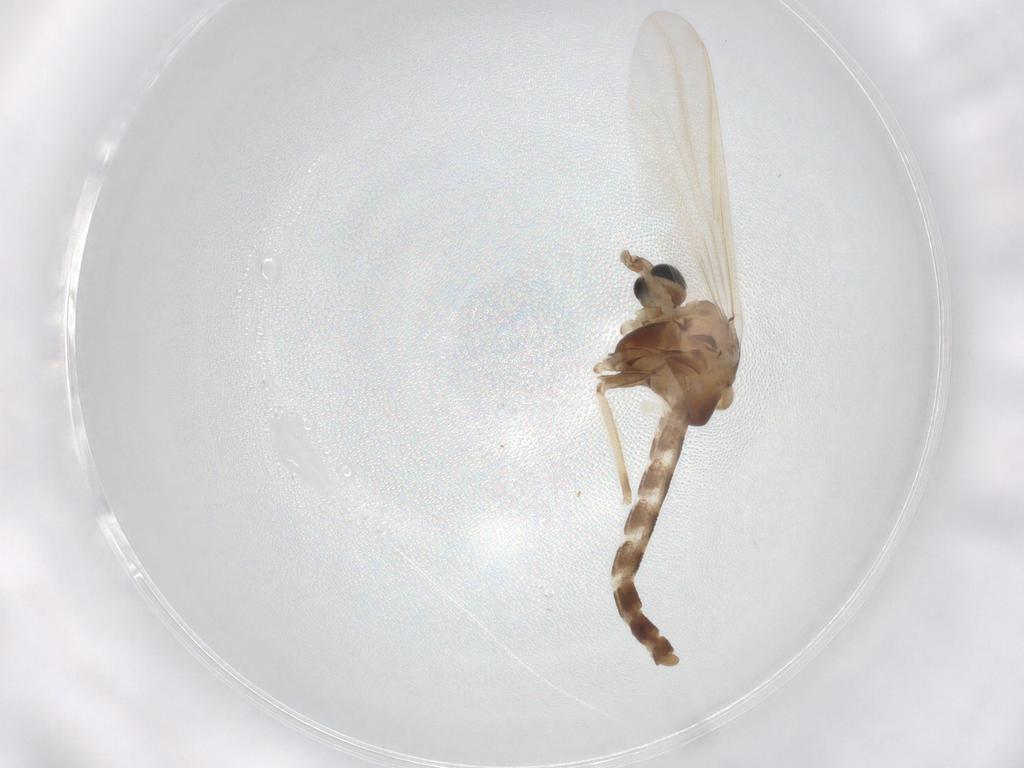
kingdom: Animalia
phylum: Arthropoda
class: Insecta
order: Diptera
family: Chironomidae
